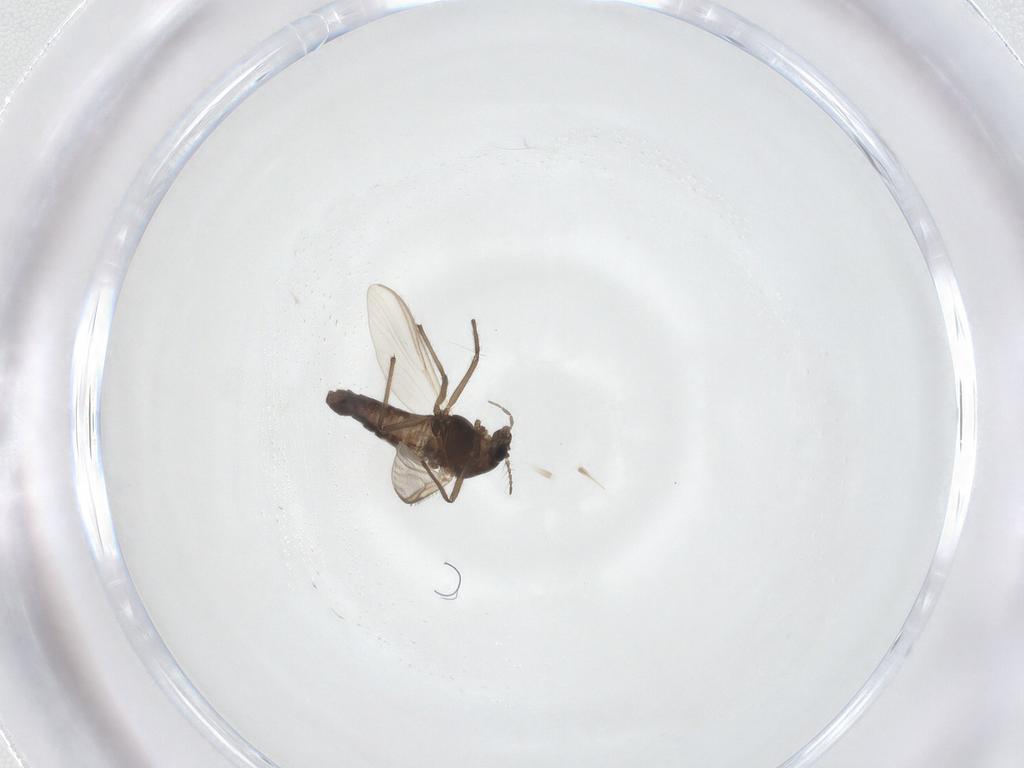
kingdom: Animalia
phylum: Arthropoda
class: Insecta
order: Diptera
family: Chironomidae
